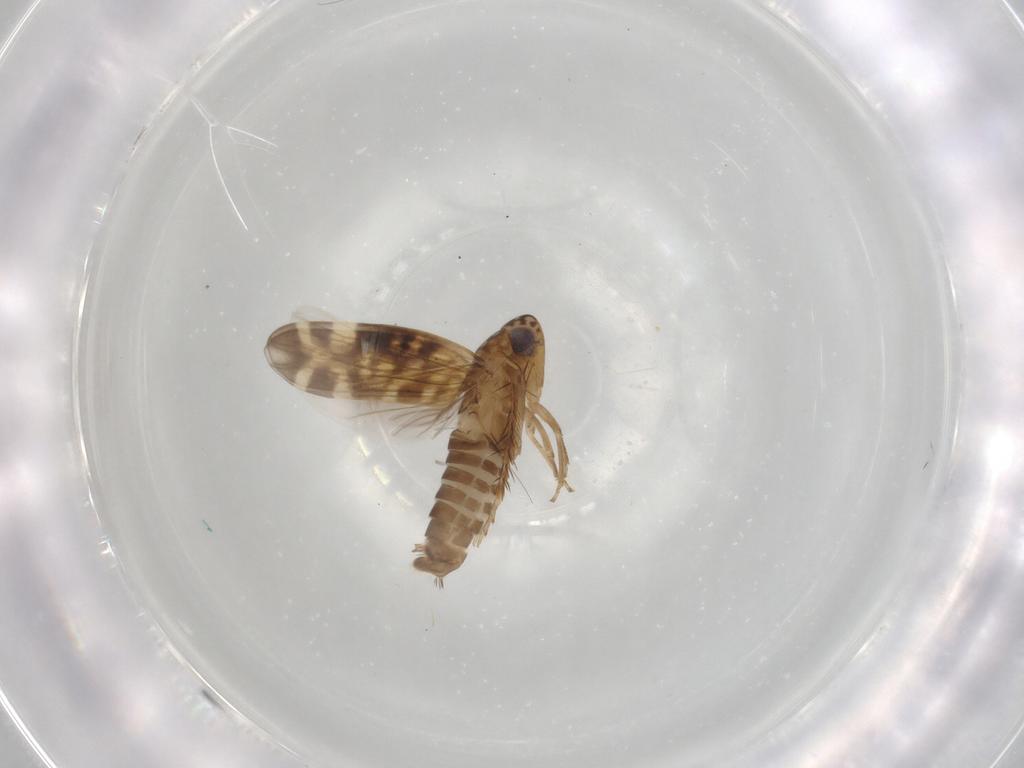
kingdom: Animalia
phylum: Arthropoda
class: Insecta
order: Hemiptera
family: Cicadellidae
